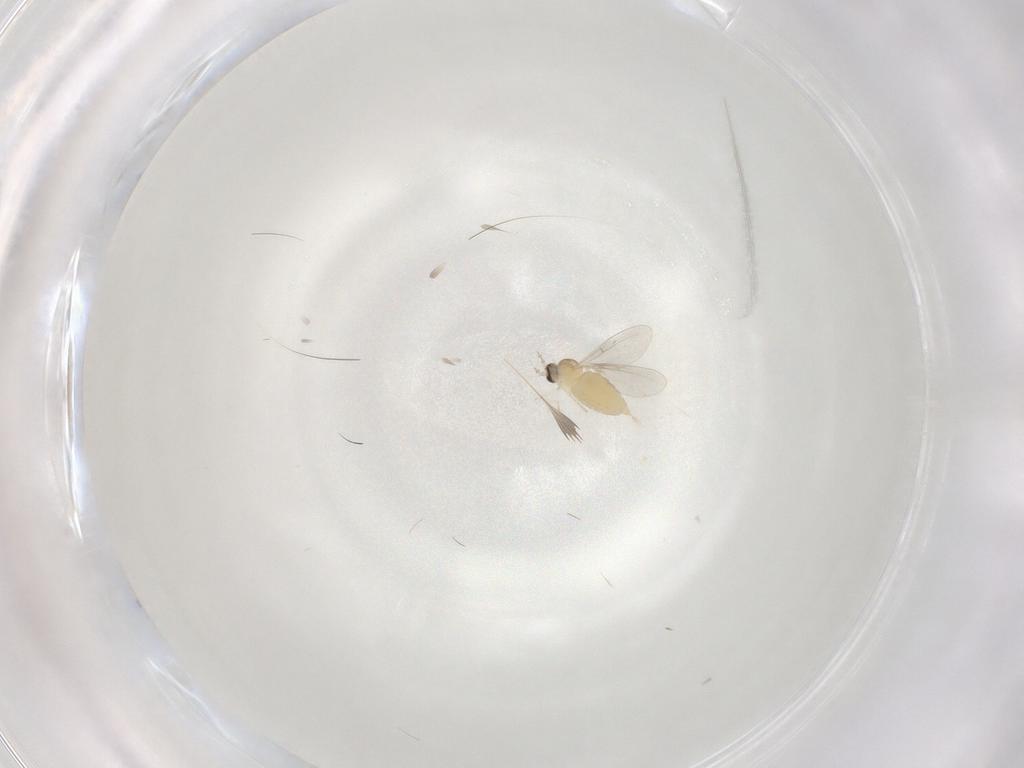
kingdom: Animalia
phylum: Arthropoda
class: Insecta
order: Diptera
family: Cecidomyiidae
